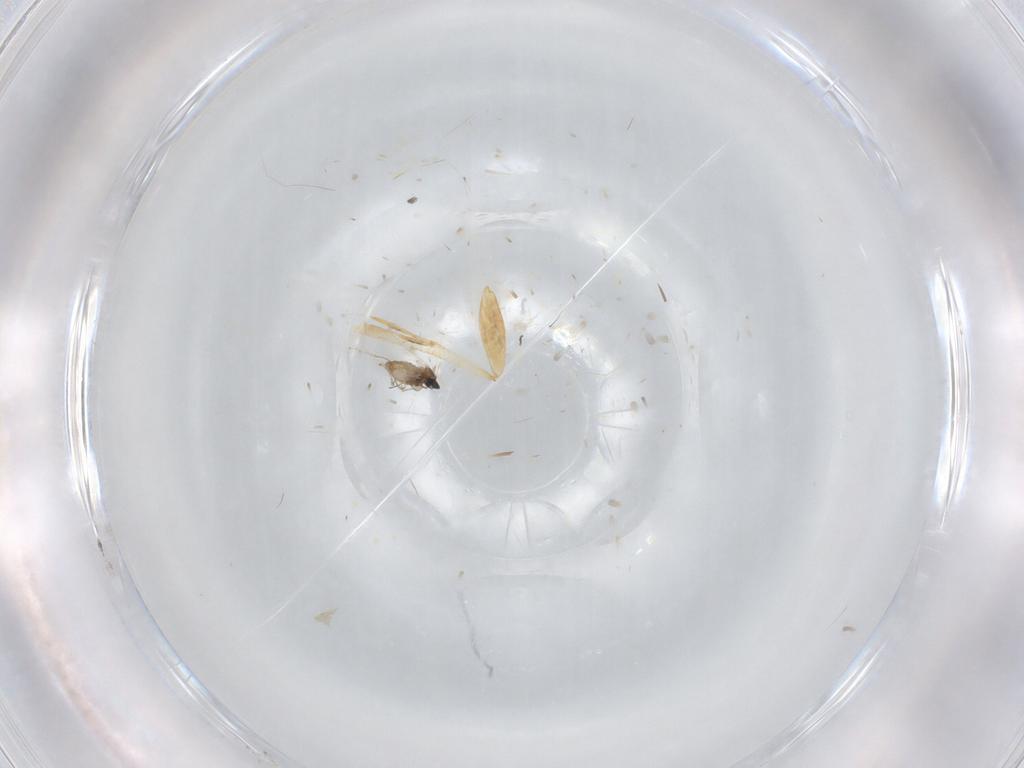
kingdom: Animalia
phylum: Arthropoda
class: Insecta
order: Diptera
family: Cecidomyiidae
